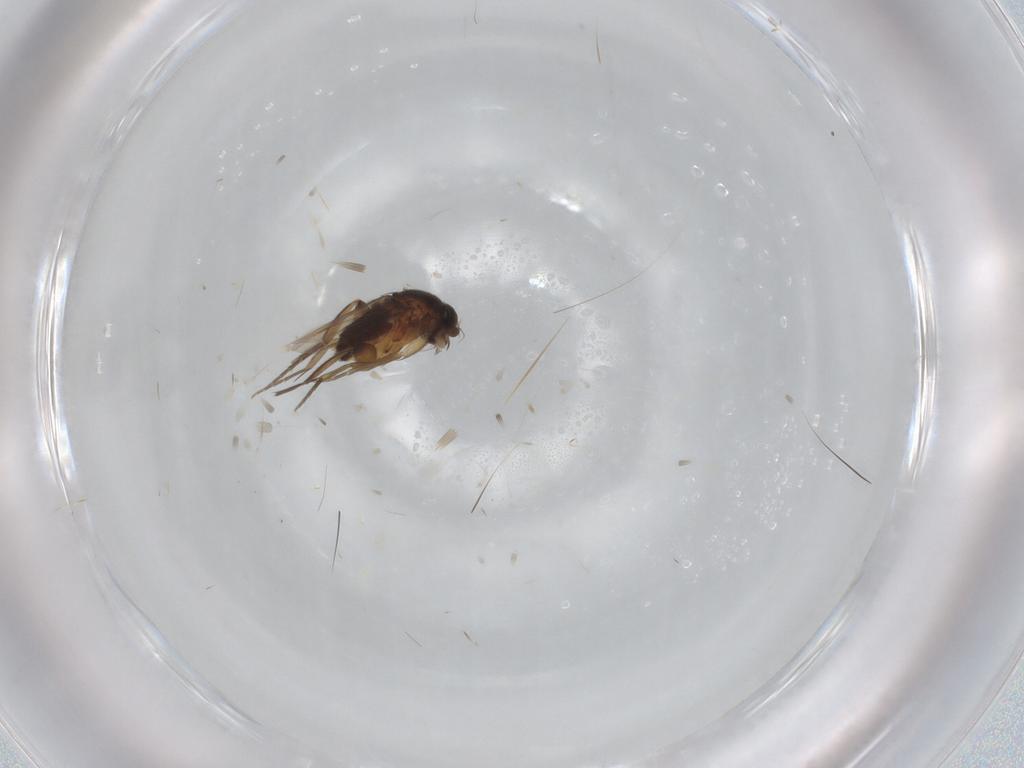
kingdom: Animalia
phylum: Arthropoda
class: Insecta
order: Diptera
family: Phoridae
